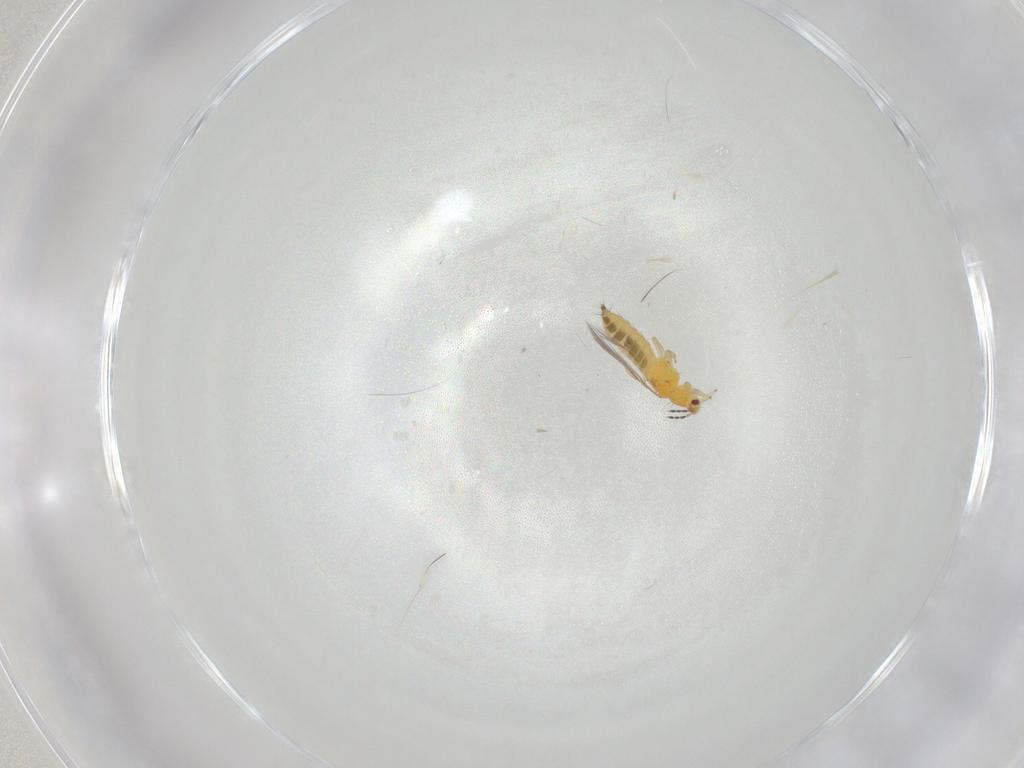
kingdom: Animalia
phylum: Arthropoda
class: Insecta
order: Thysanoptera
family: Thripidae
